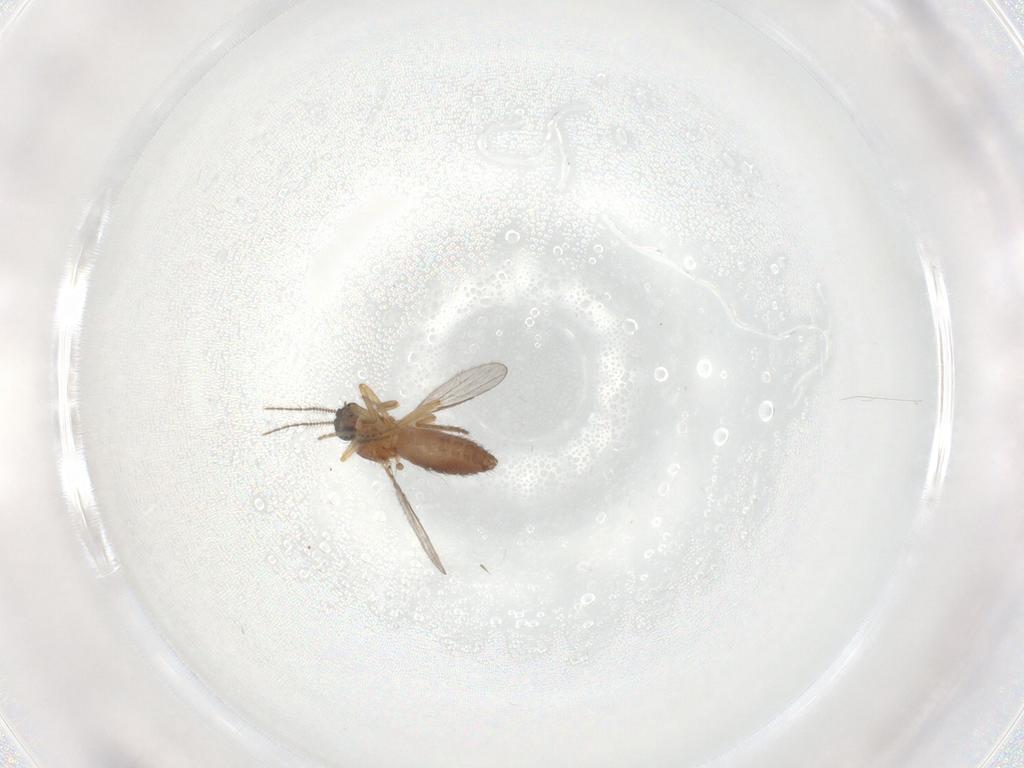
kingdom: Animalia
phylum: Arthropoda
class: Insecta
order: Diptera
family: Ceratopogonidae
